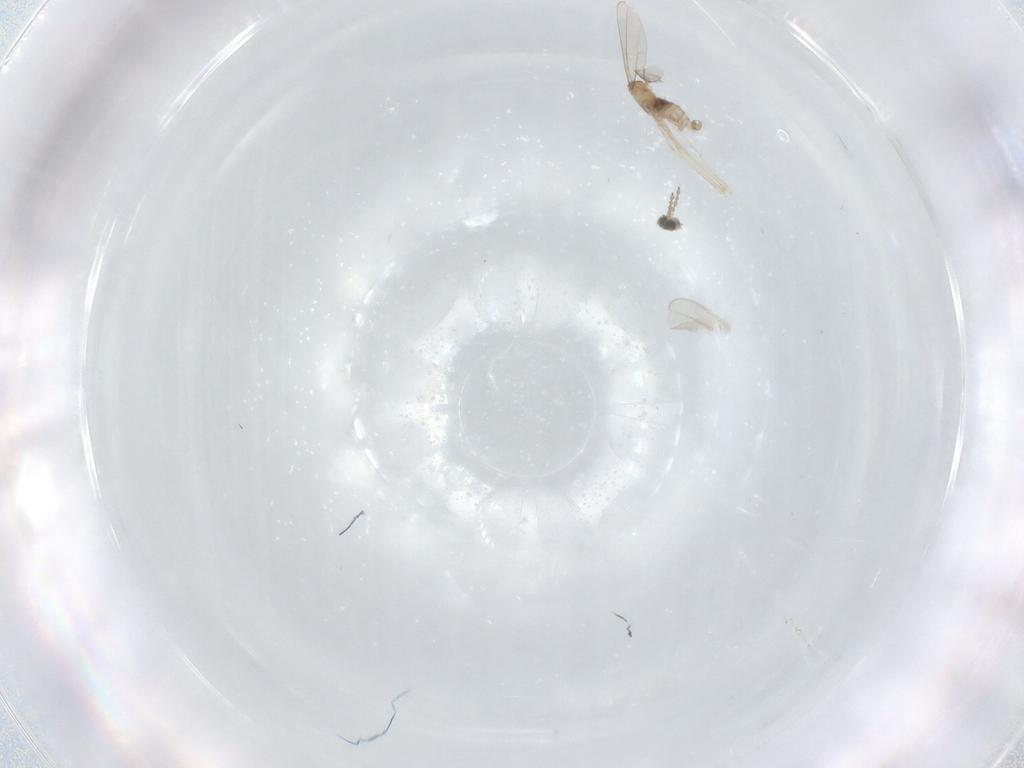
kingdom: Animalia
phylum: Arthropoda
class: Insecta
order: Diptera
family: Cecidomyiidae
